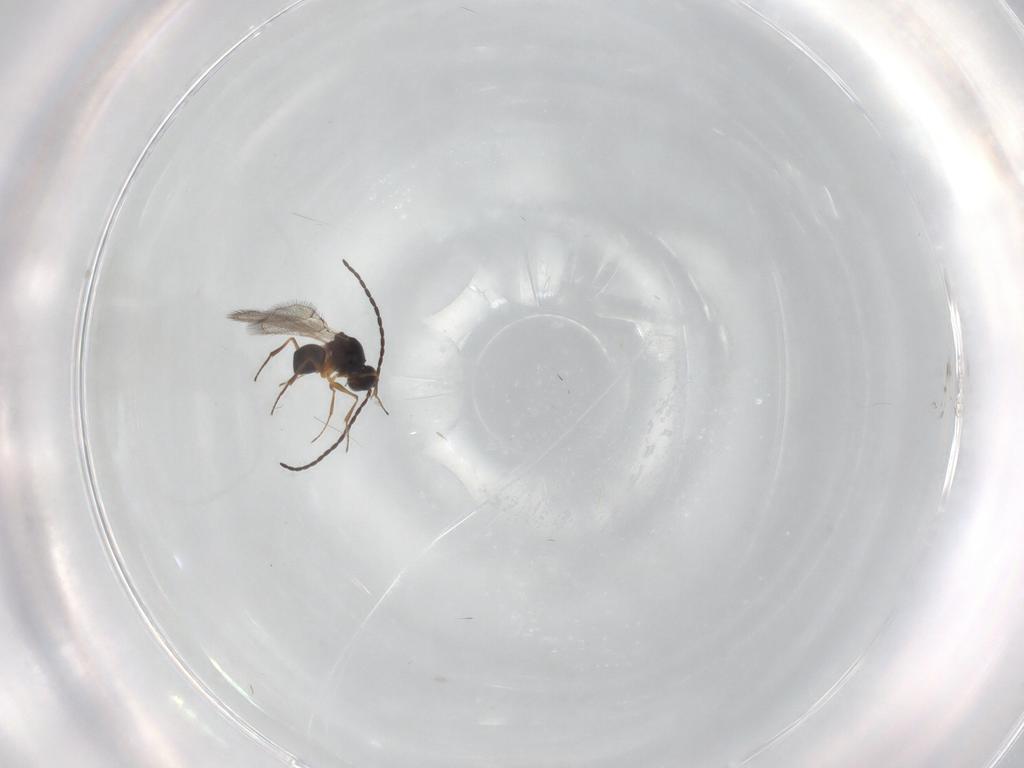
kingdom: Animalia
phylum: Arthropoda
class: Insecta
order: Hymenoptera
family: Figitidae
